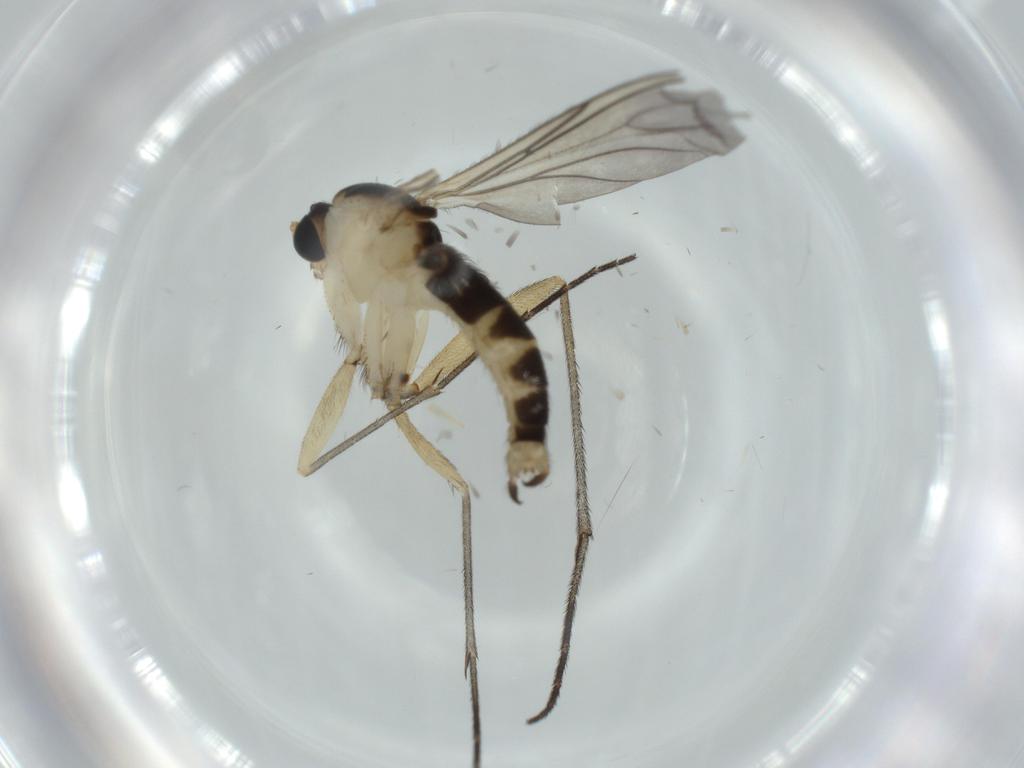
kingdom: Animalia
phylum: Arthropoda
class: Insecta
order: Diptera
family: Sciaridae
